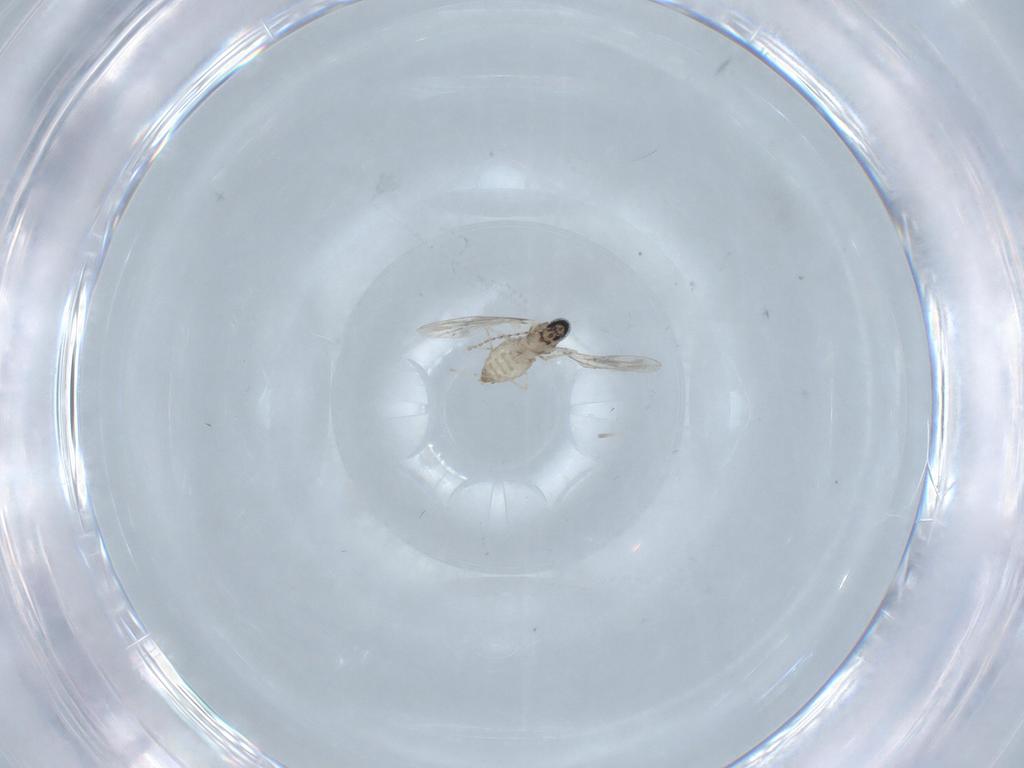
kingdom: Animalia
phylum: Arthropoda
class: Insecta
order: Diptera
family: Cecidomyiidae
